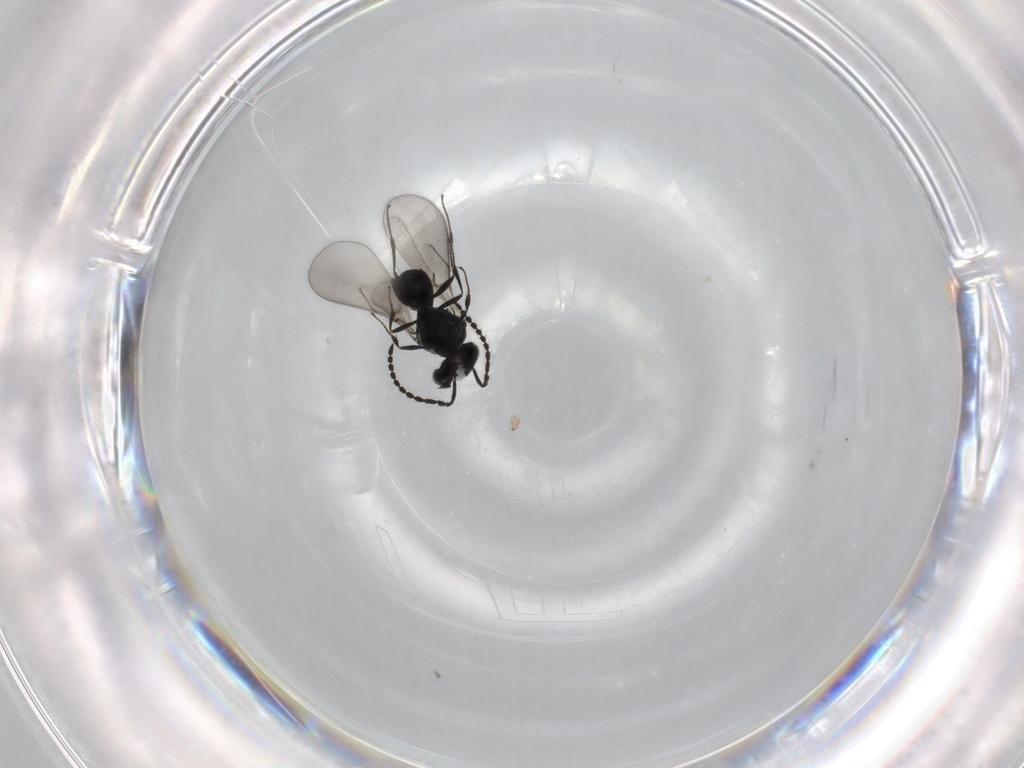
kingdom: Animalia
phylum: Arthropoda
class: Insecta
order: Hymenoptera
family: Scelionidae
